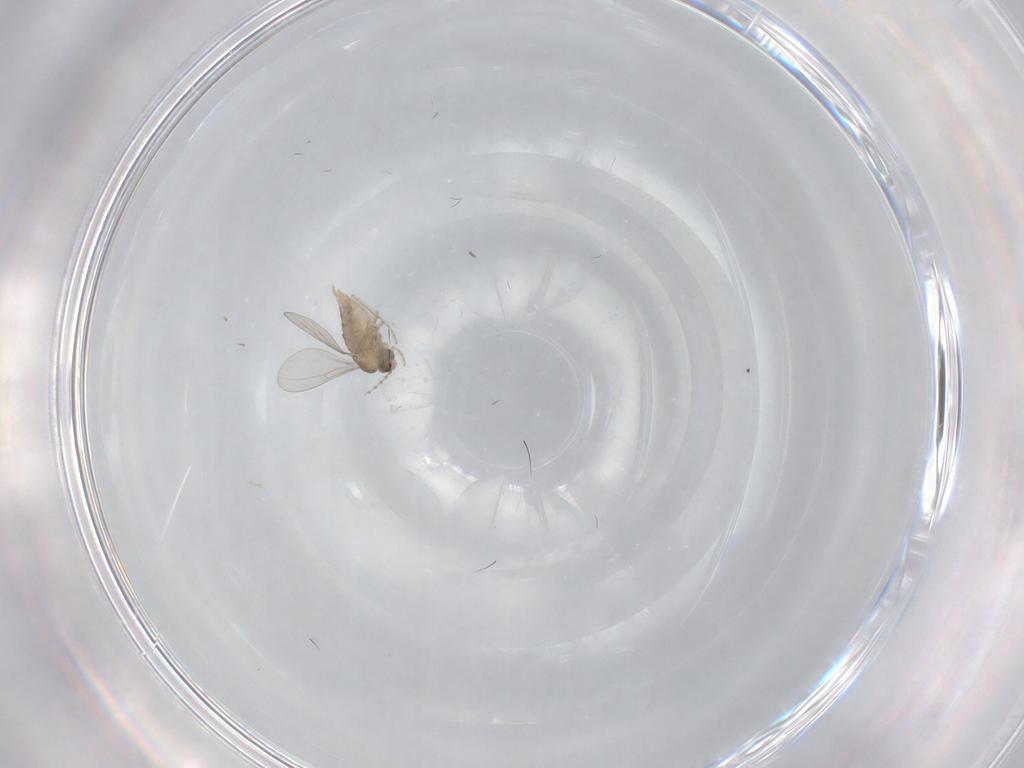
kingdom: Animalia
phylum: Arthropoda
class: Insecta
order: Diptera
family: Cecidomyiidae
